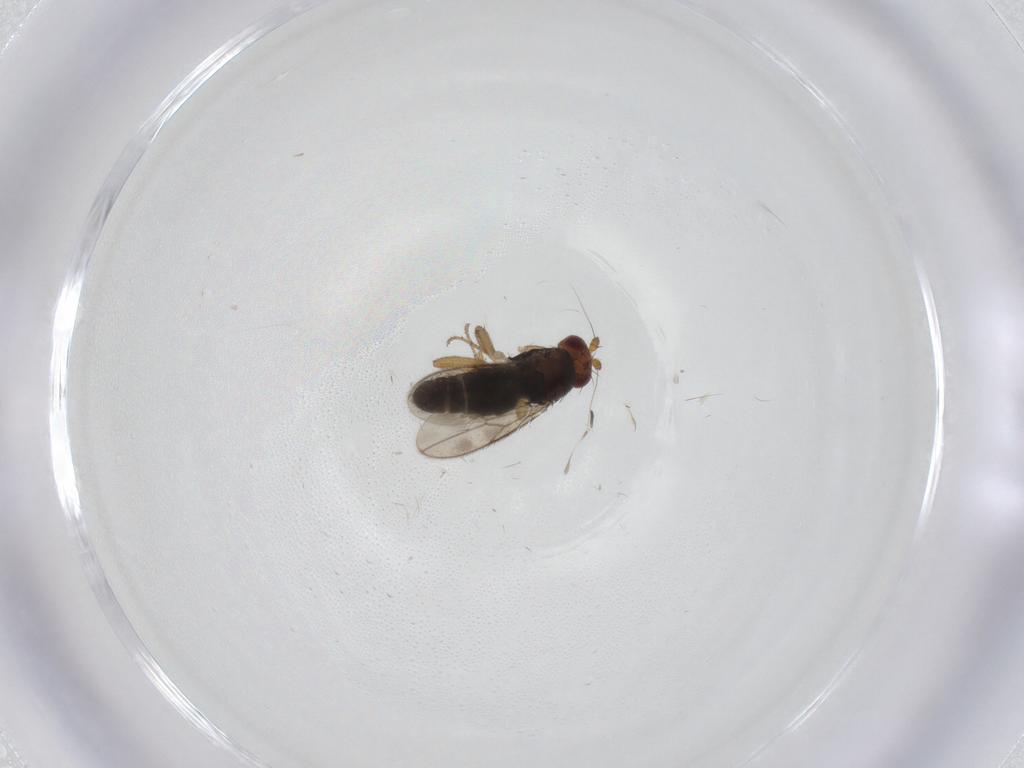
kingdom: Animalia
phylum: Arthropoda
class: Insecta
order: Diptera
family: Sphaeroceridae
